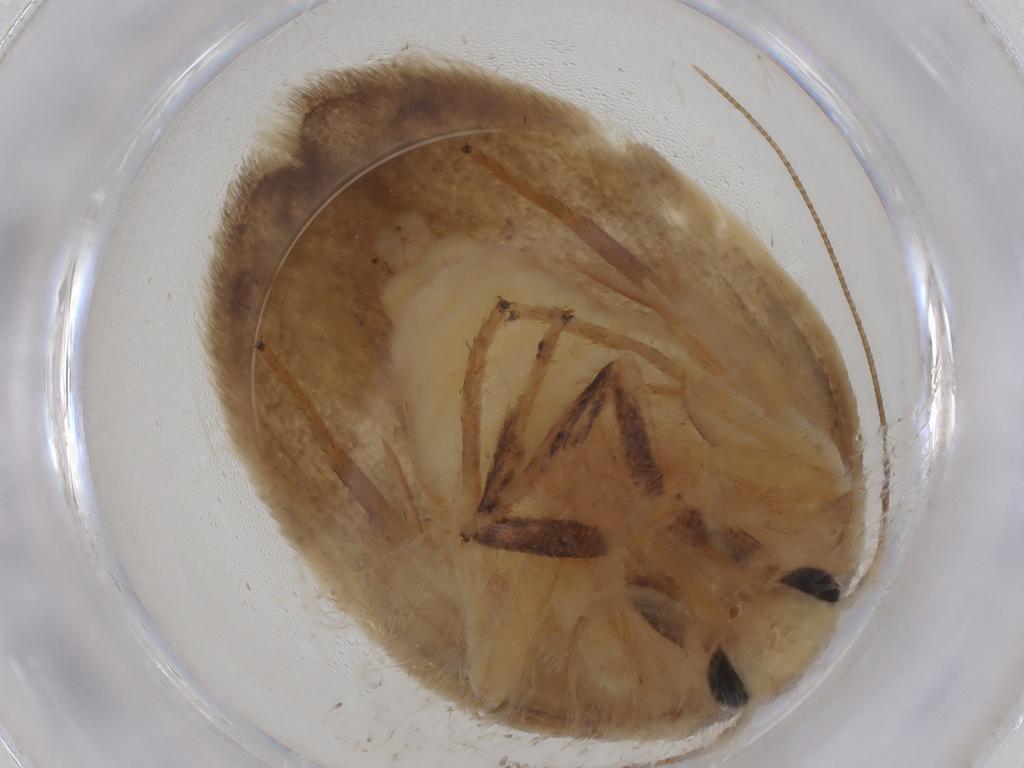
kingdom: Animalia
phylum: Arthropoda
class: Insecta
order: Lepidoptera
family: Depressariidae
